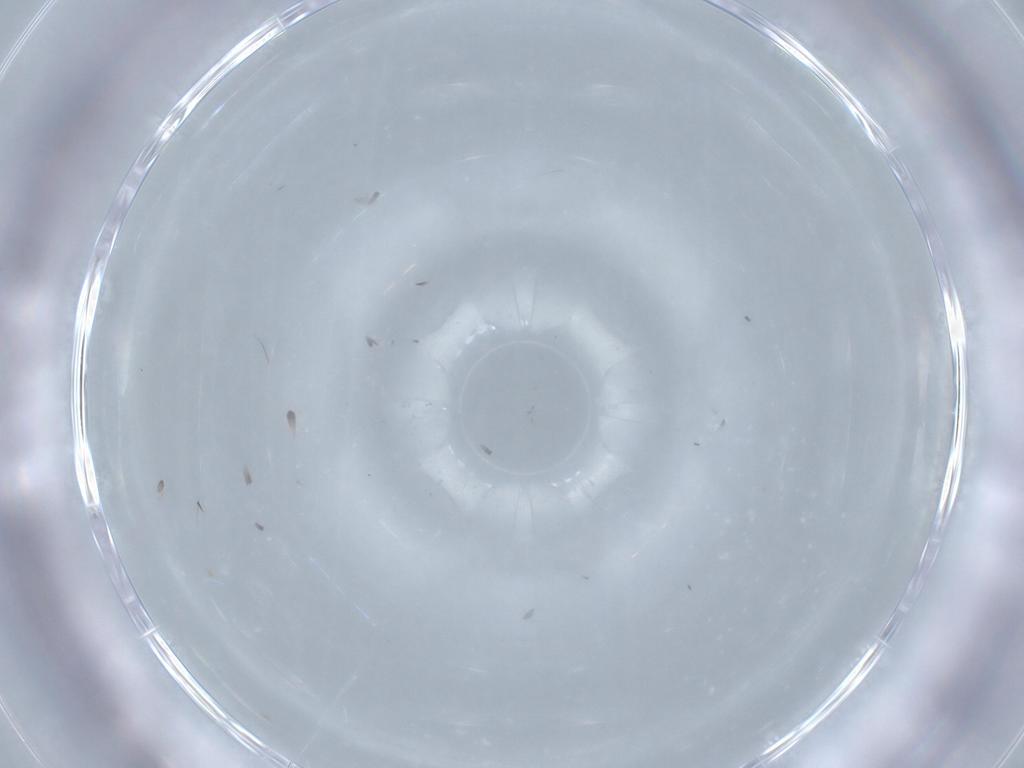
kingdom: Animalia
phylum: Arthropoda
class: Insecta
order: Hymenoptera
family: Aphelinidae
